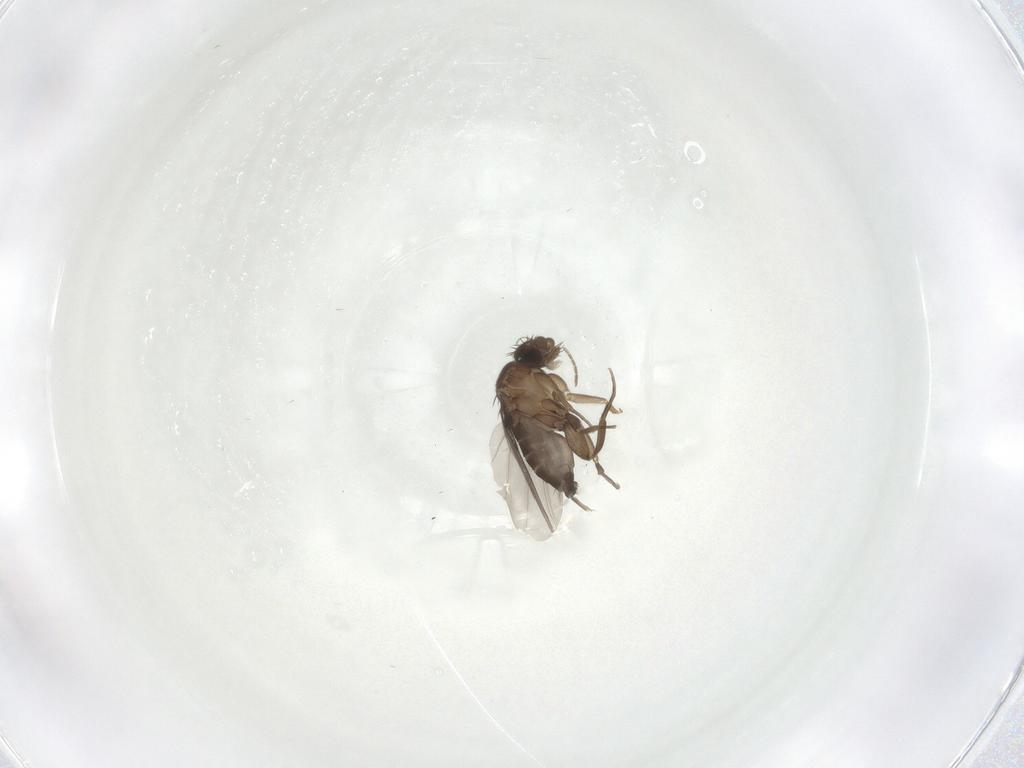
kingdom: Animalia
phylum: Arthropoda
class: Insecta
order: Diptera
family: Phoridae
